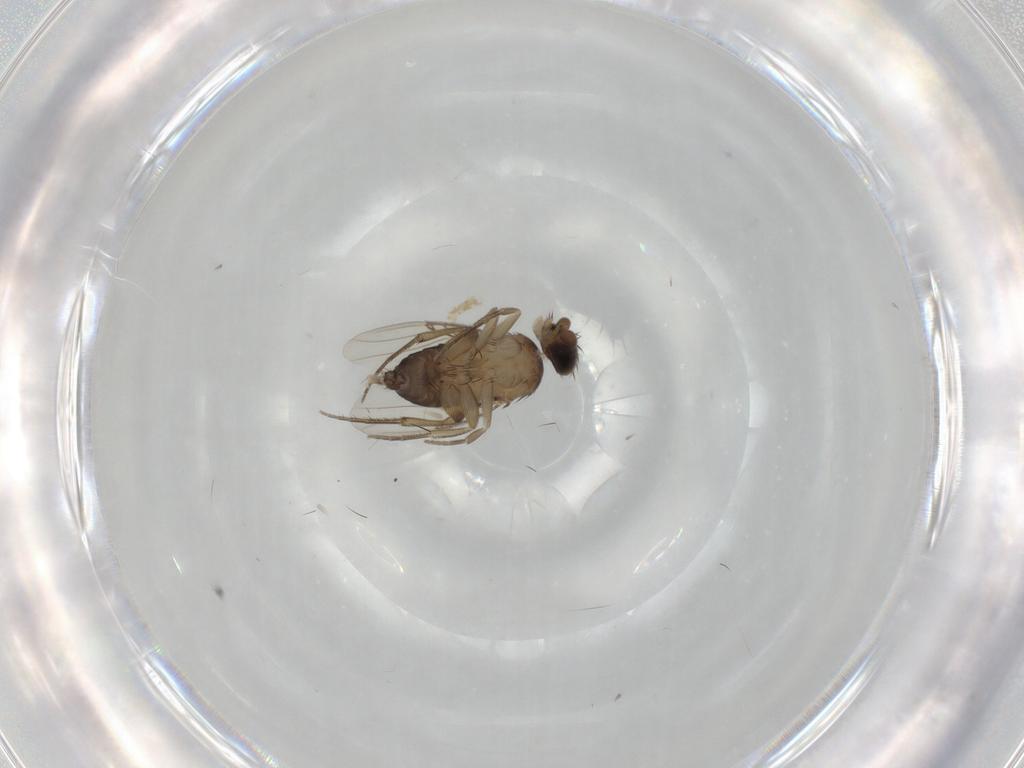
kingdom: Animalia
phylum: Arthropoda
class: Insecta
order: Diptera
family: Phoridae
